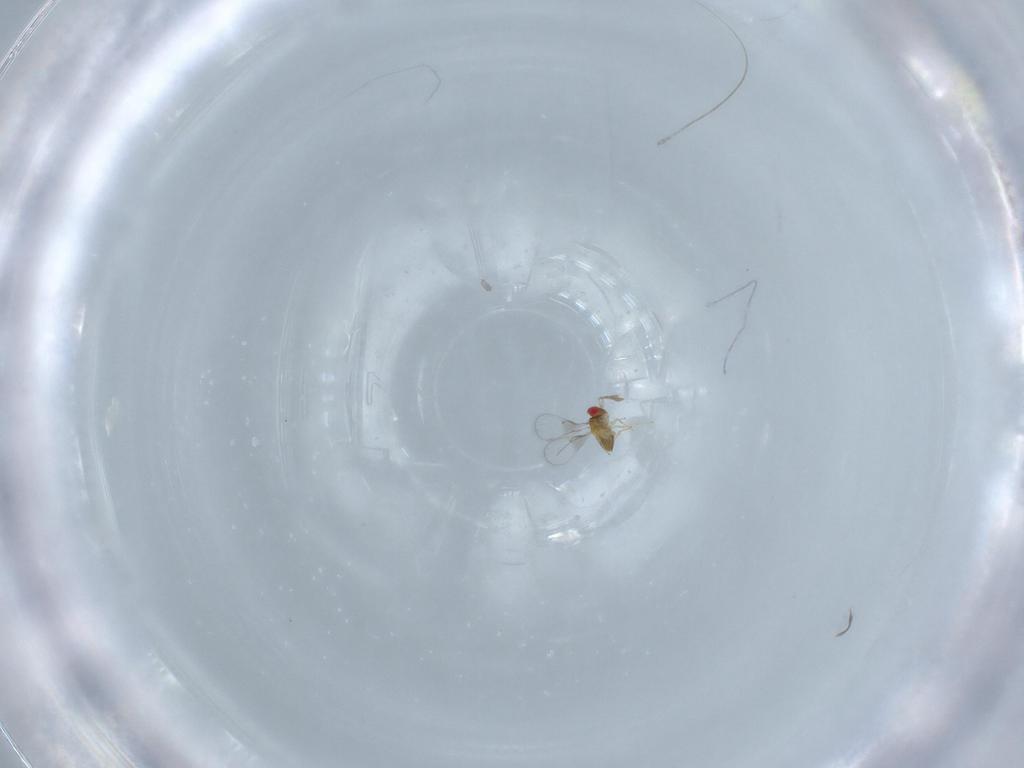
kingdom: Animalia
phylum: Arthropoda
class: Insecta
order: Hymenoptera
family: Trichogrammatidae
